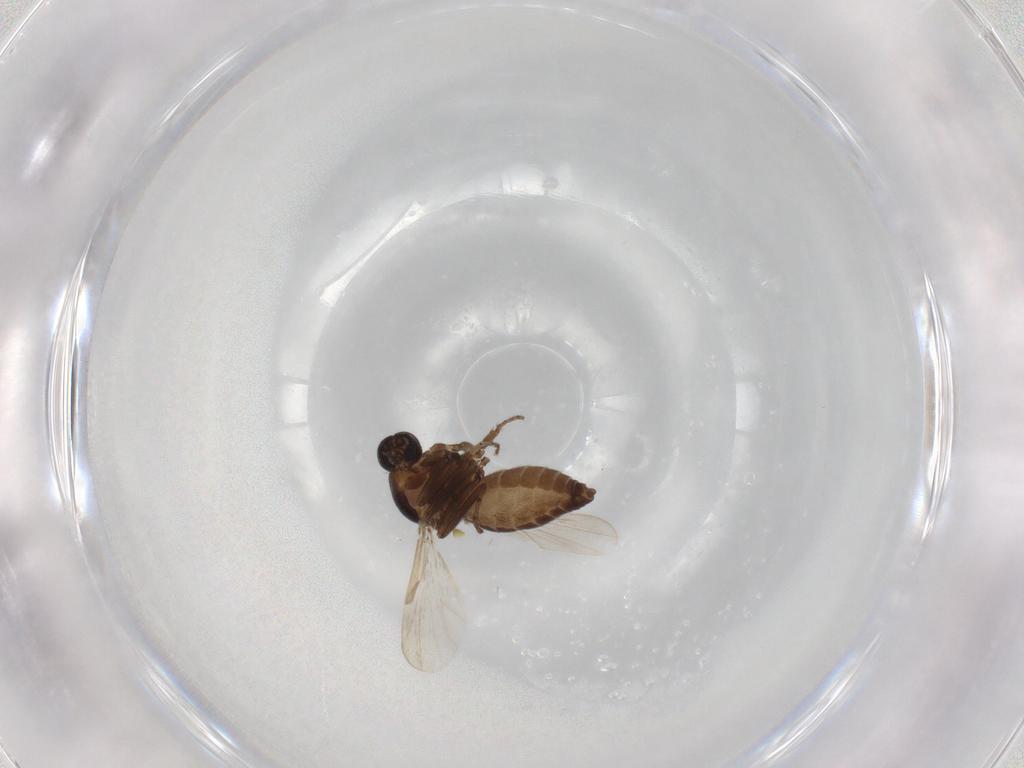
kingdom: Animalia
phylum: Arthropoda
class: Insecta
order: Diptera
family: Ceratopogonidae
